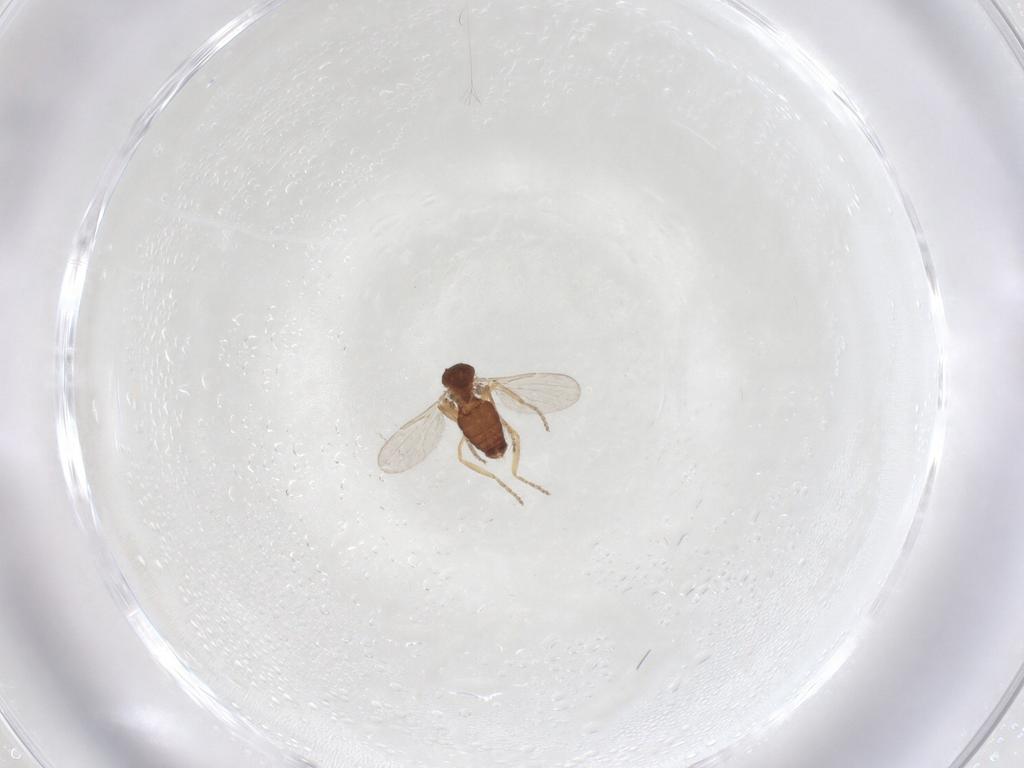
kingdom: Animalia
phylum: Arthropoda
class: Insecta
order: Diptera
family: Ceratopogonidae
